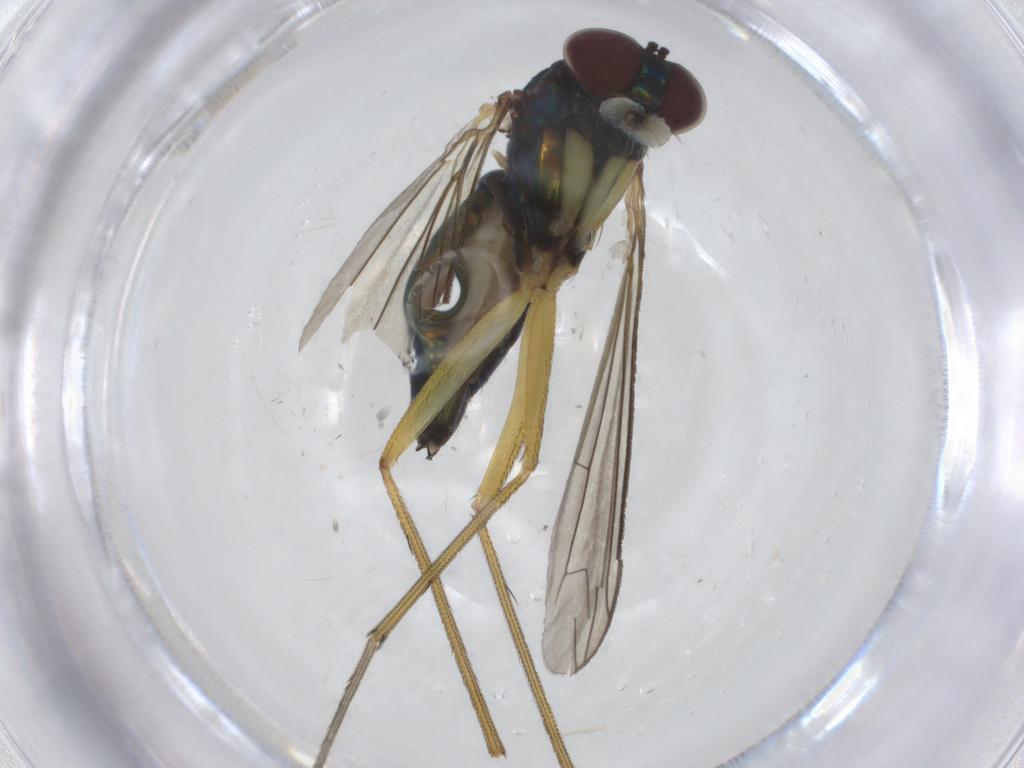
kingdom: Animalia
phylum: Arthropoda
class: Insecta
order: Diptera
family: Dolichopodidae
